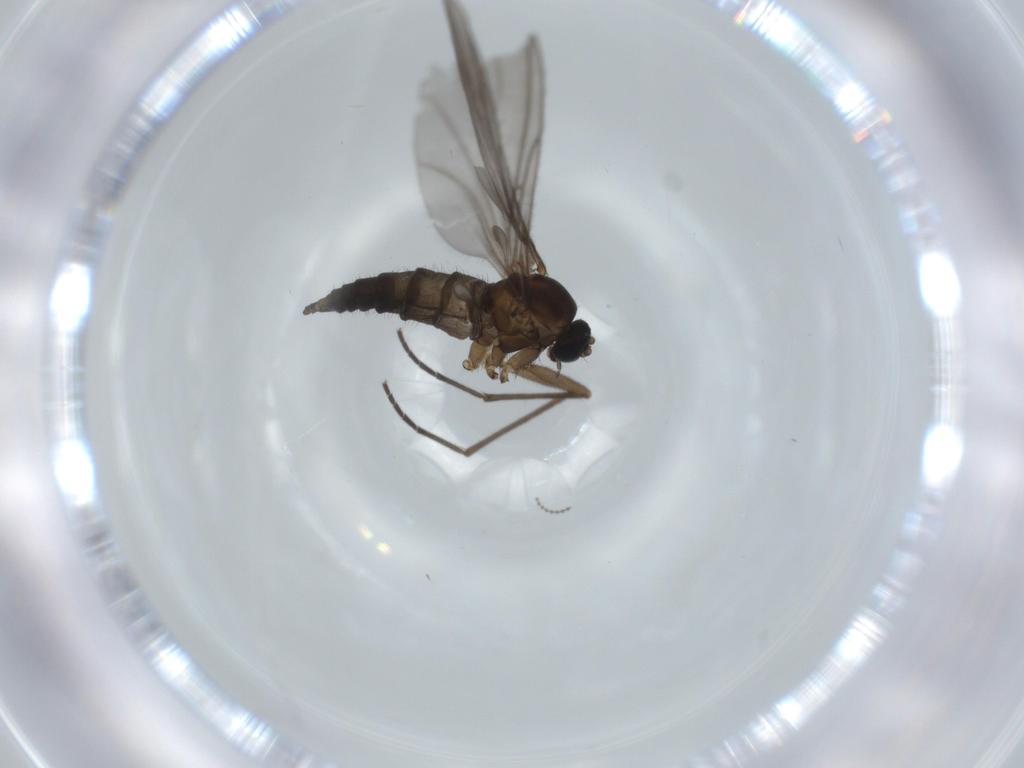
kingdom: Animalia
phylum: Arthropoda
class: Insecta
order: Diptera
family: Sciaridae
